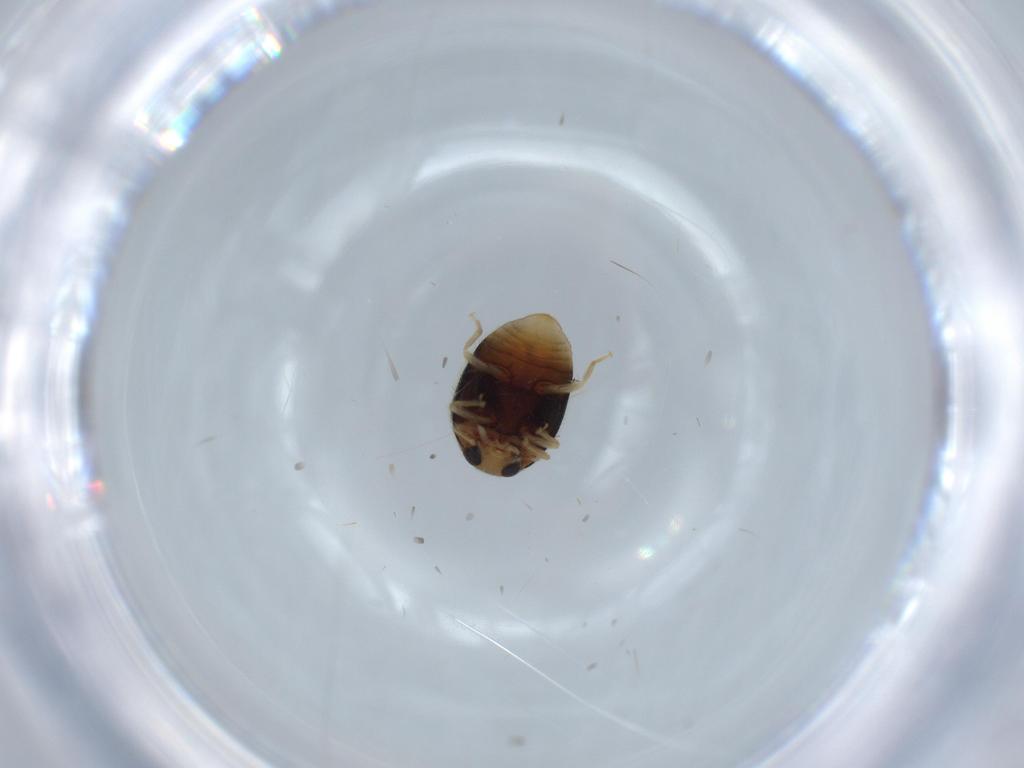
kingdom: Animalia
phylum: Arthropoda
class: Insecta
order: Coleoptera
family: Coccinellidae
